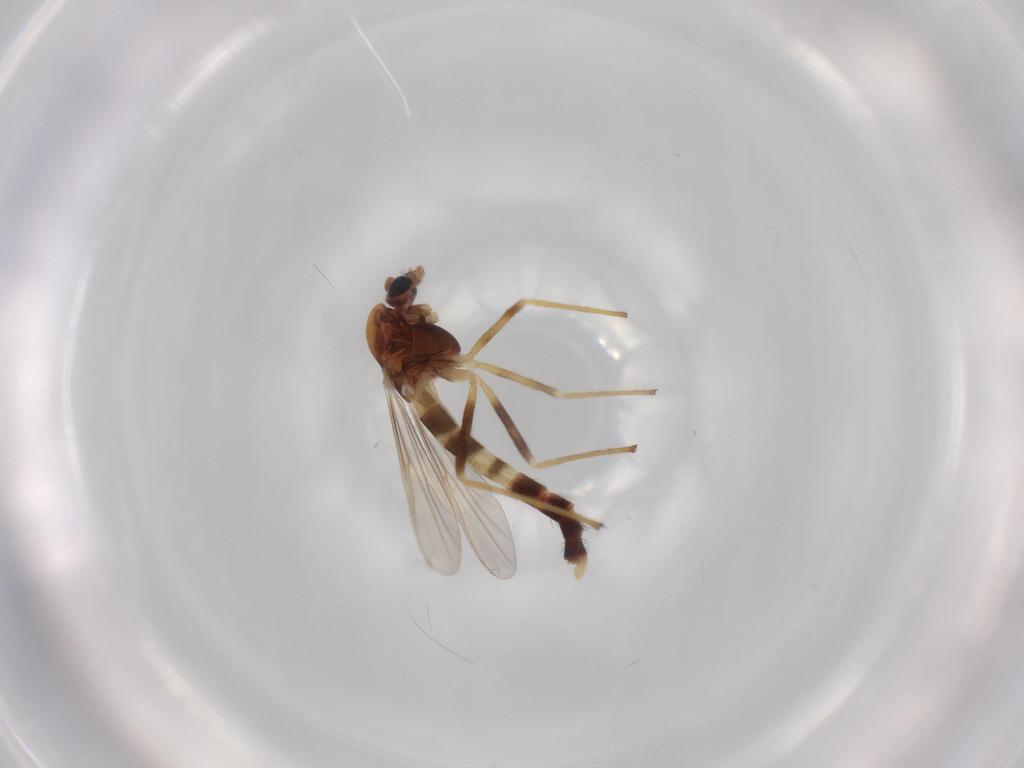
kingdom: Animalia
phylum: Arthropoda
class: Insecta
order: Diptera
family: Chironomidae
